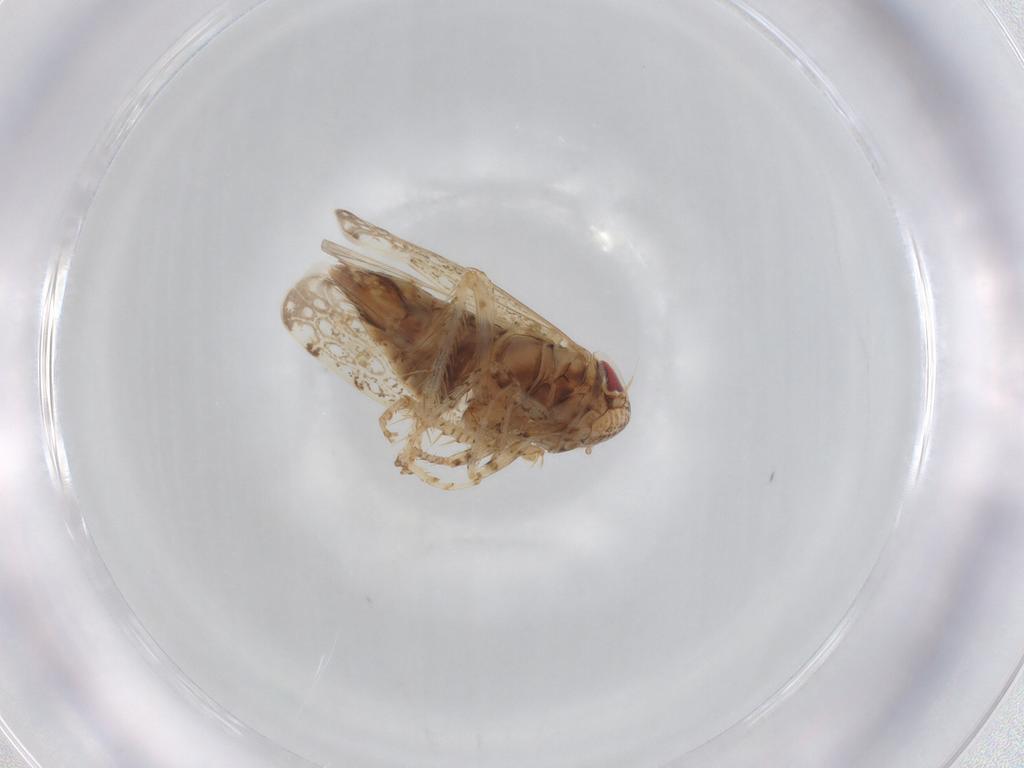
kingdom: Animalia
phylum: Arthropoda
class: Insecta
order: Hemiptera
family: Cicadellidae
